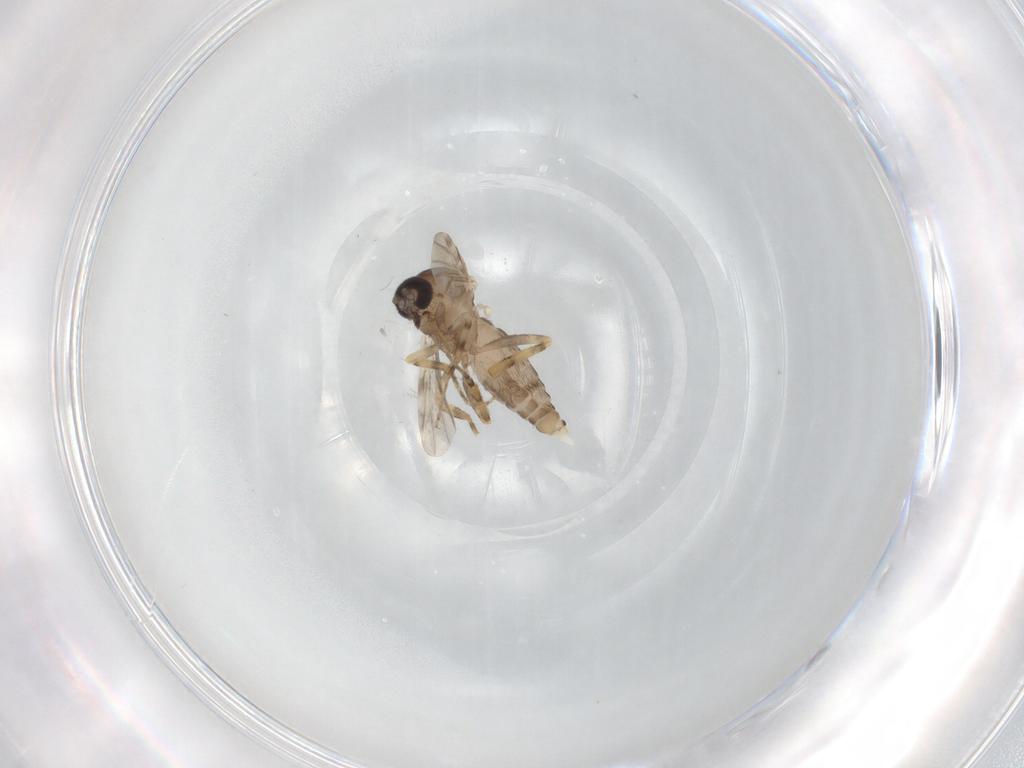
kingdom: Animalia
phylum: Arthropoda
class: Insecta
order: Diptera
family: Ceratopogonidae
